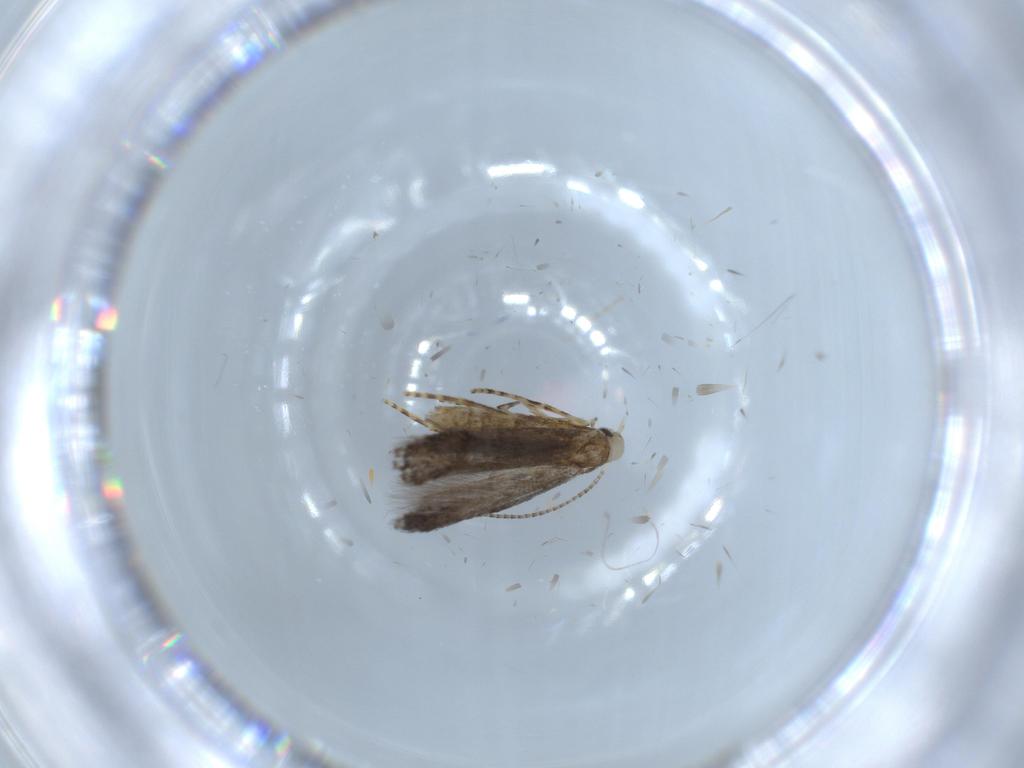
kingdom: Animalia
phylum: Arthropoda
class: Insecta
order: Lepidoptera
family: Oecophoridae
